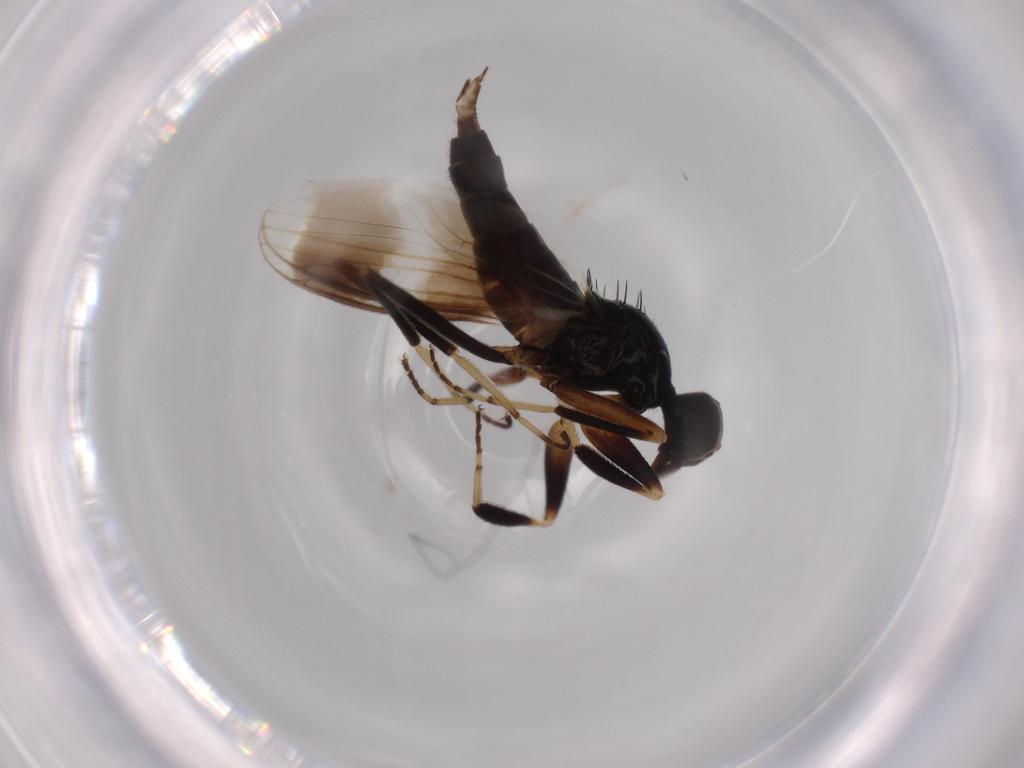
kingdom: Animalia
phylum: Arthropoda
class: Insecta
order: Diptera
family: Hybotidae
